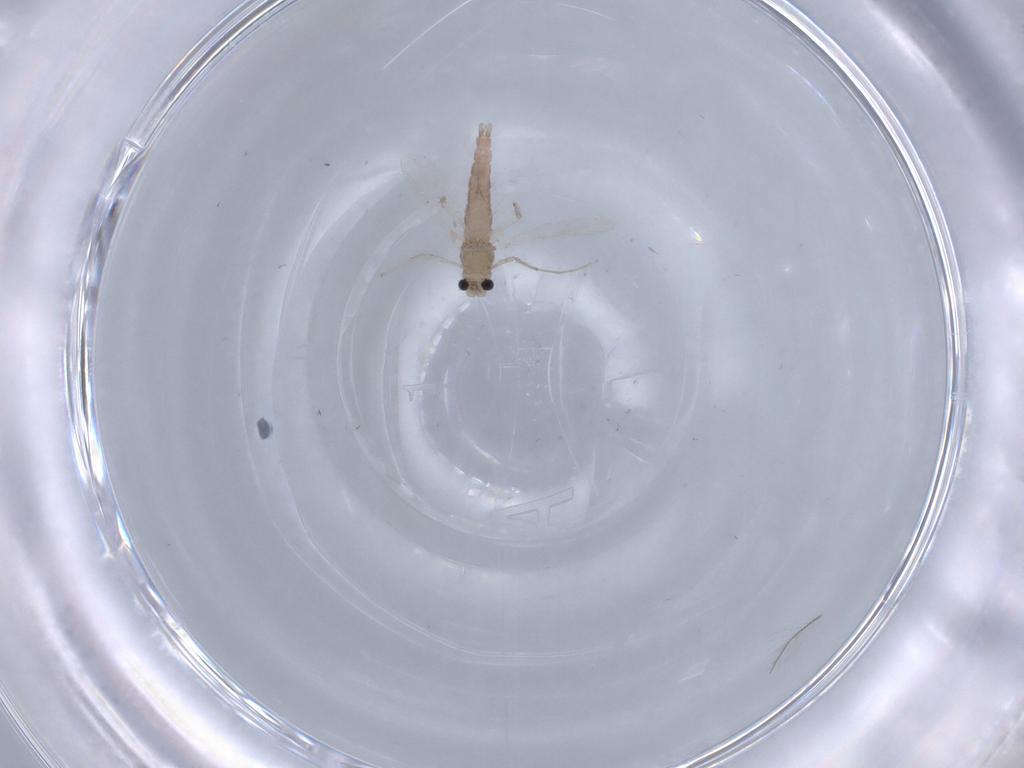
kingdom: Animalia
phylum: Arthropoda
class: Insecta
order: Diptera
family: Chironomidae
